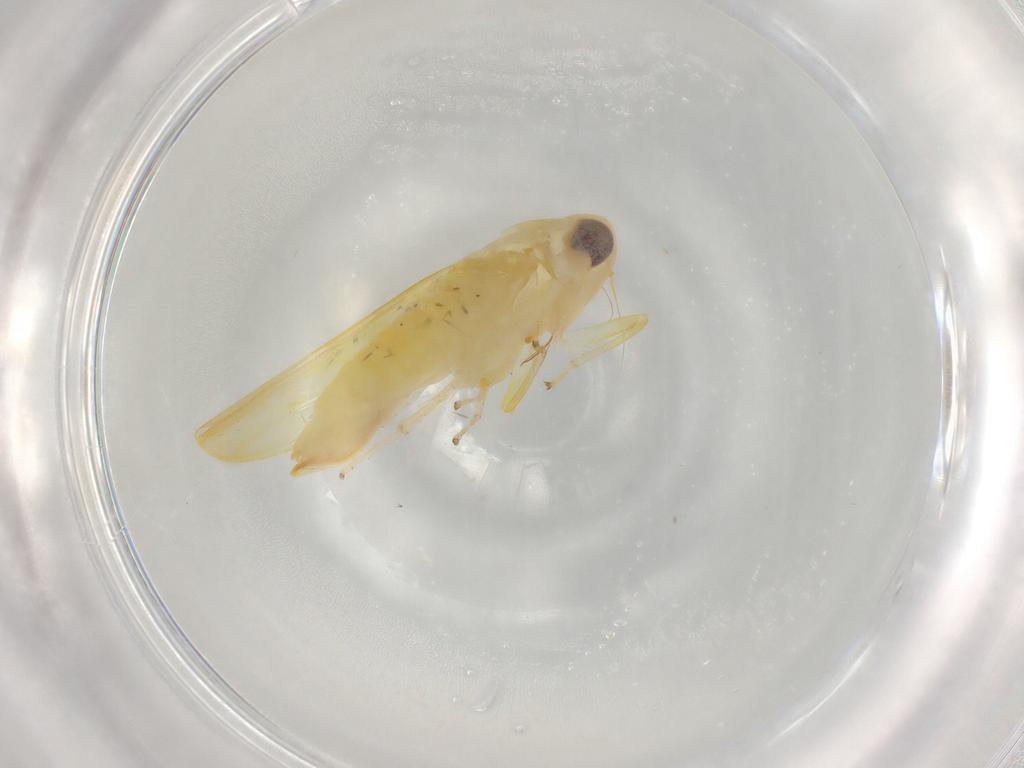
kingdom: Animalia
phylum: Arthropoda
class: Insecta
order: Hemiptera
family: Cicadellidae
